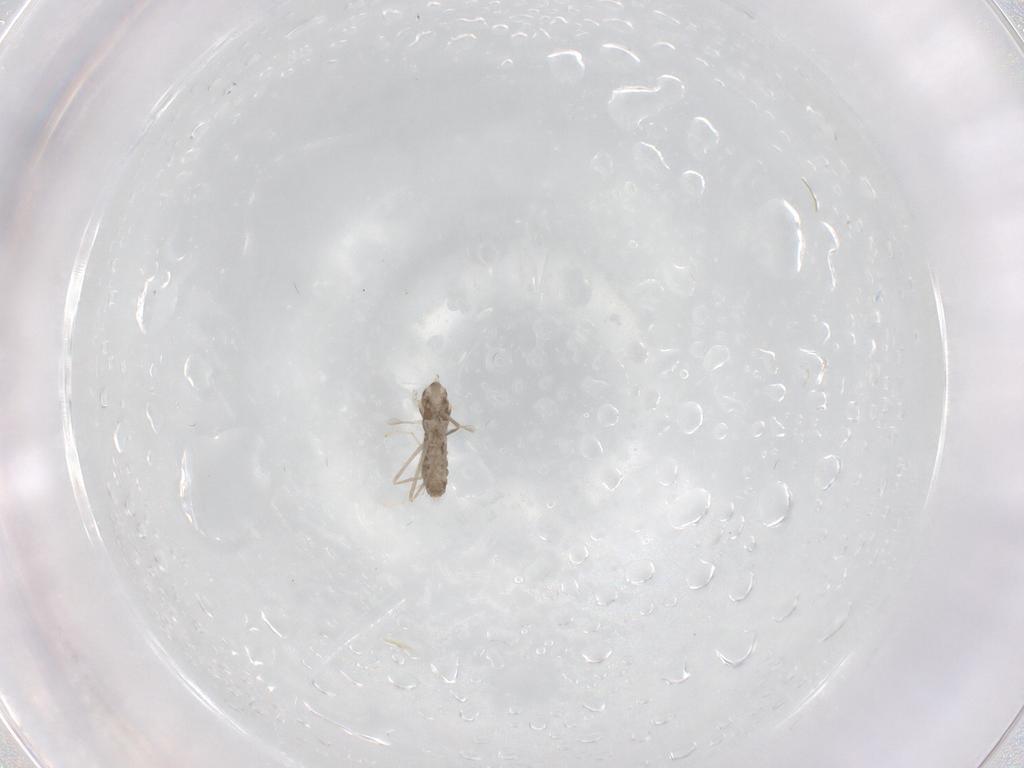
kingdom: Animalia
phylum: Arthropoda
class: Insecta
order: Diptera
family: Cecidomyiidae
